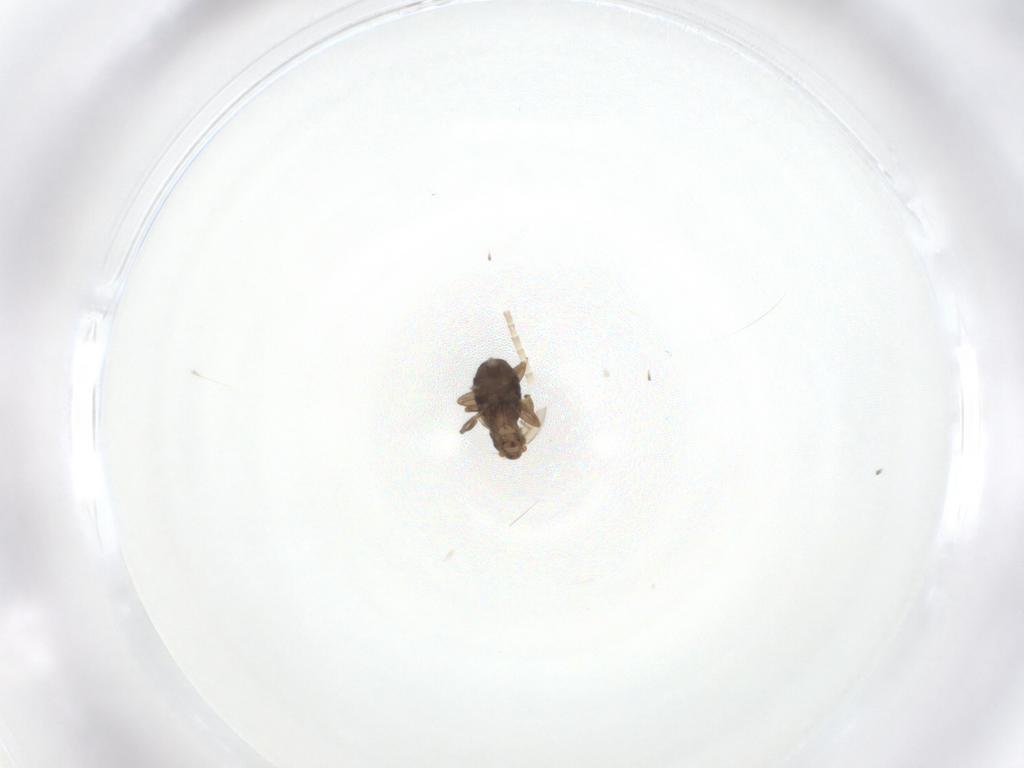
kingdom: Animalia
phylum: Arthropoda
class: Insecta
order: Diptera
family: Phoridae
